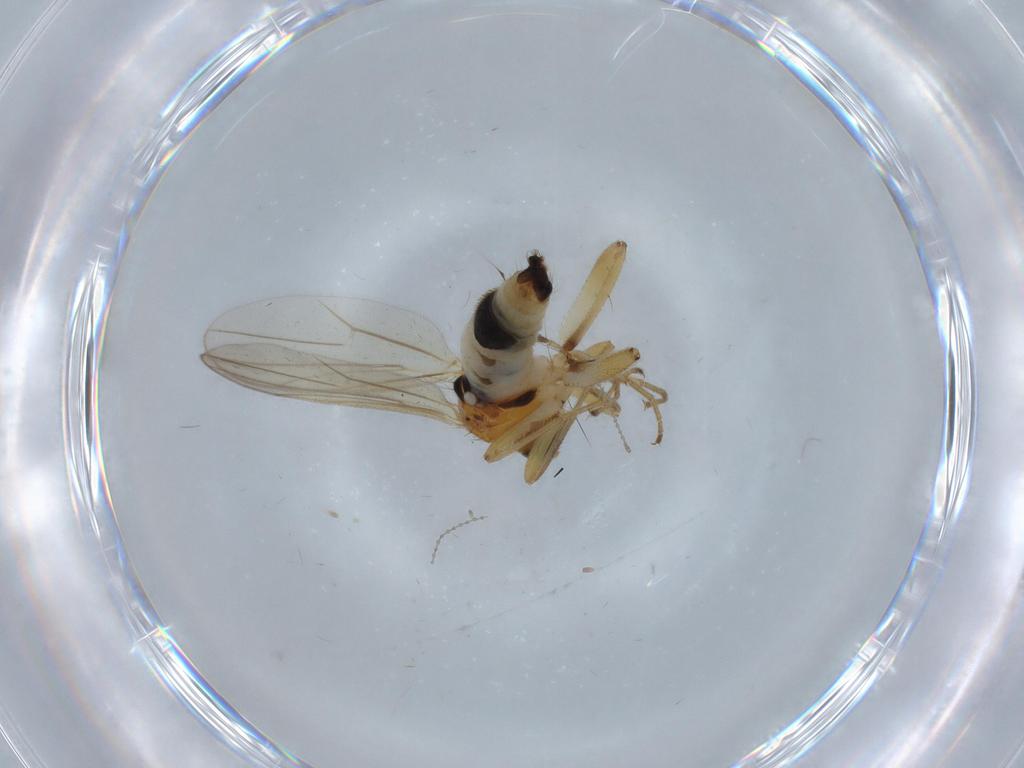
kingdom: Animalia
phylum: Arthropoda
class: Insecta
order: Diptera
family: Hybotidae
